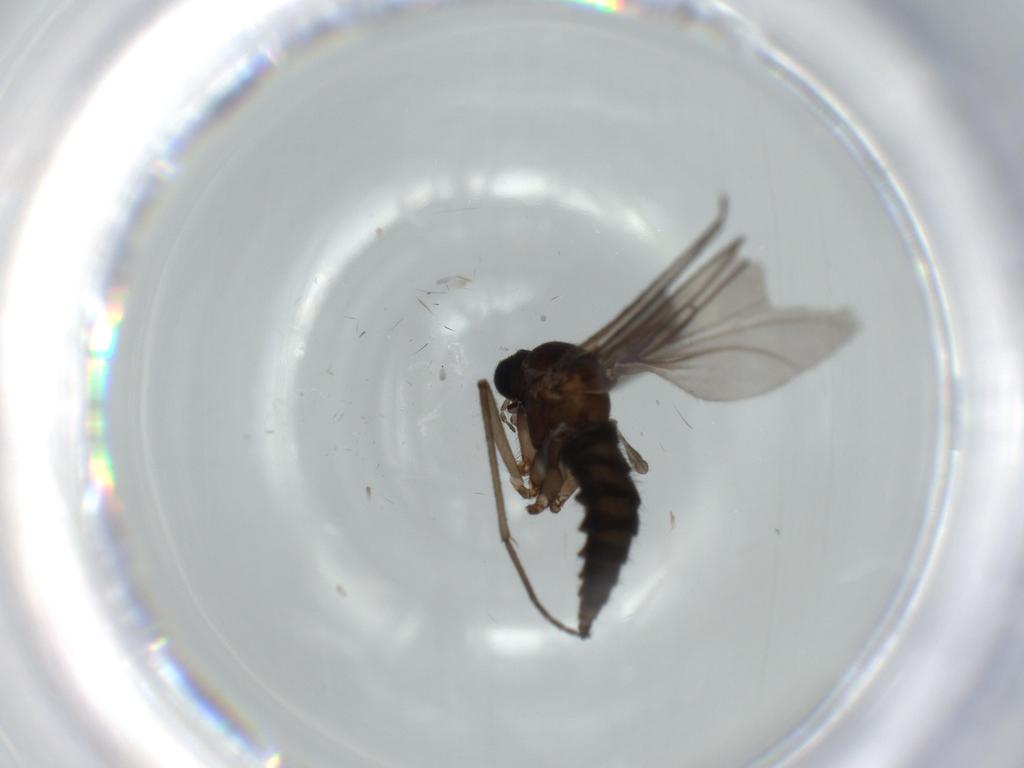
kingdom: Animalia
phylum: Arthropoda
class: Insecta
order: Diptera
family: Sciaridae
